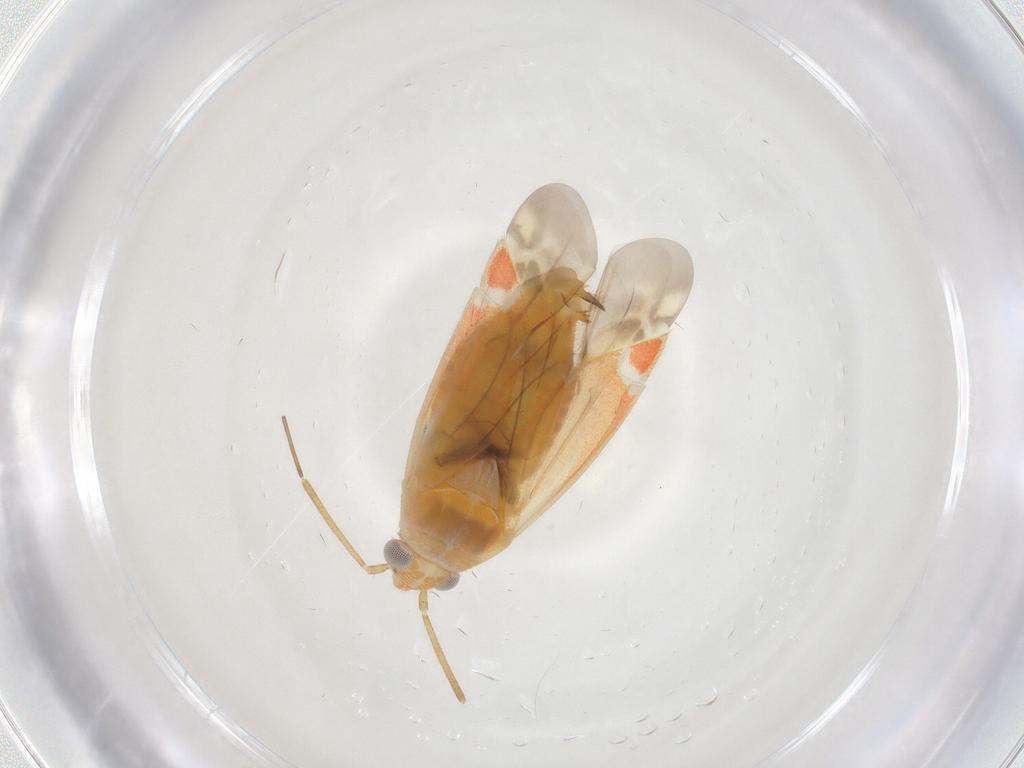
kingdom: Animalia
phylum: Arthropoda
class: Insecta
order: Hemiptera
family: Miridae
